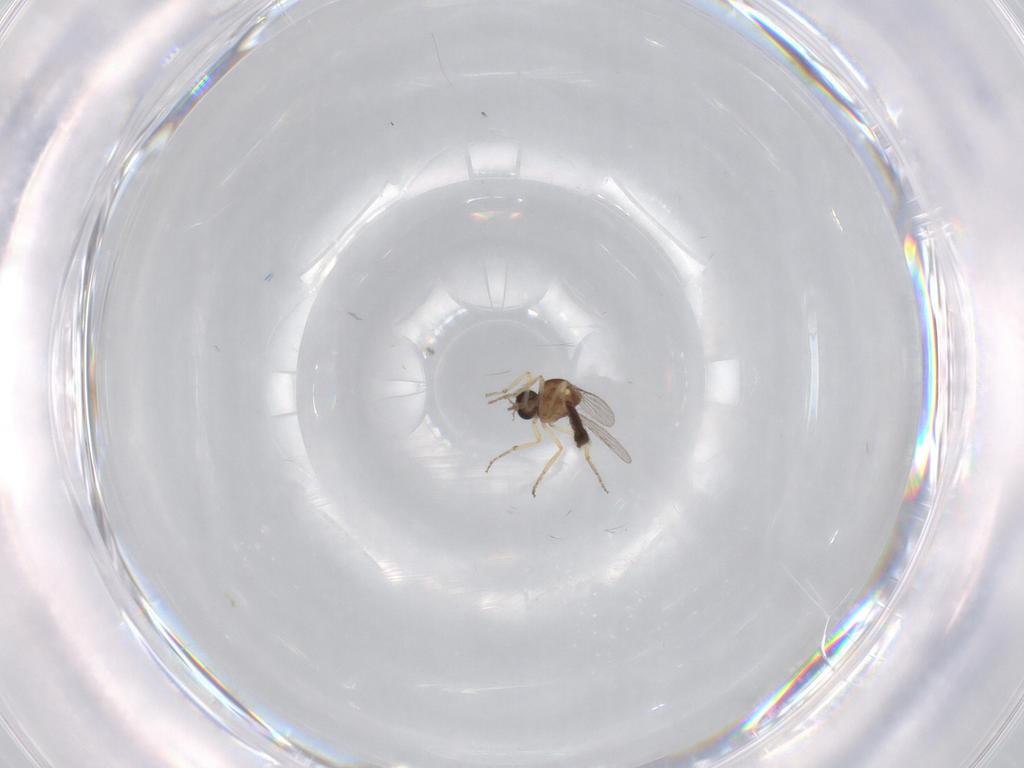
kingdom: Animalia
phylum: Arthropoda
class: Insecta
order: Diptera
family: Ceratopogonidae
